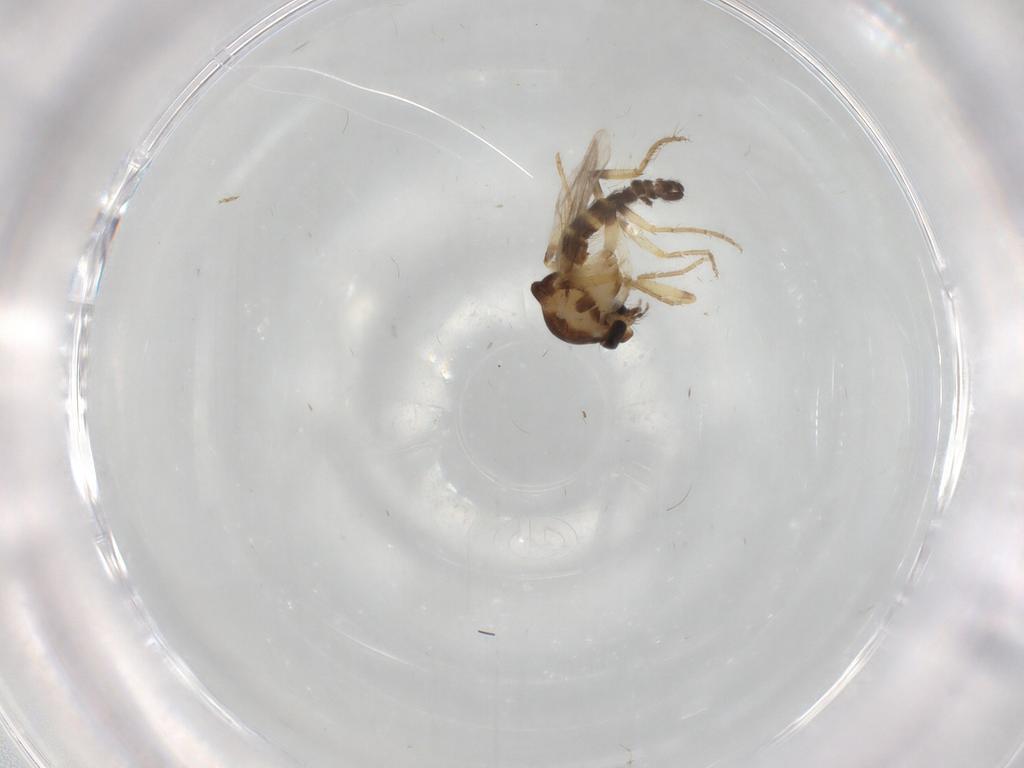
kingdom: Animalia
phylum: Arthropoda
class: Insecta
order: Diptera
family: Ceratopogonidae
